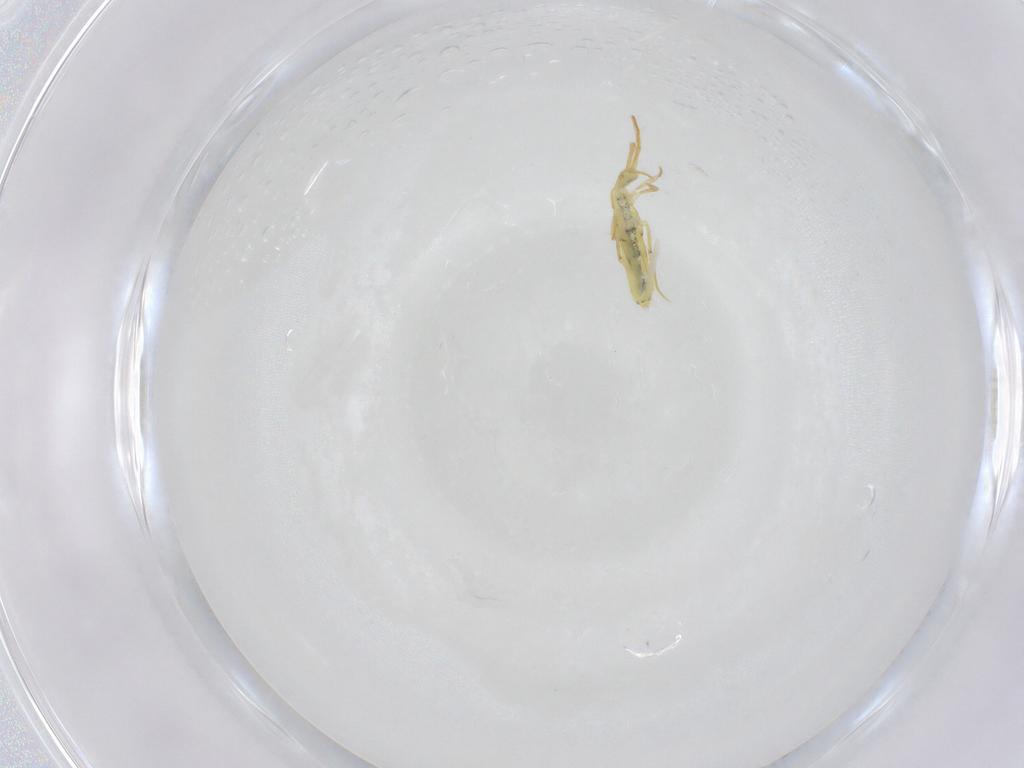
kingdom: Animalia
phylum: Arthropoda
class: Collembola
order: Entomobryomorpha
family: Entomobryidae
